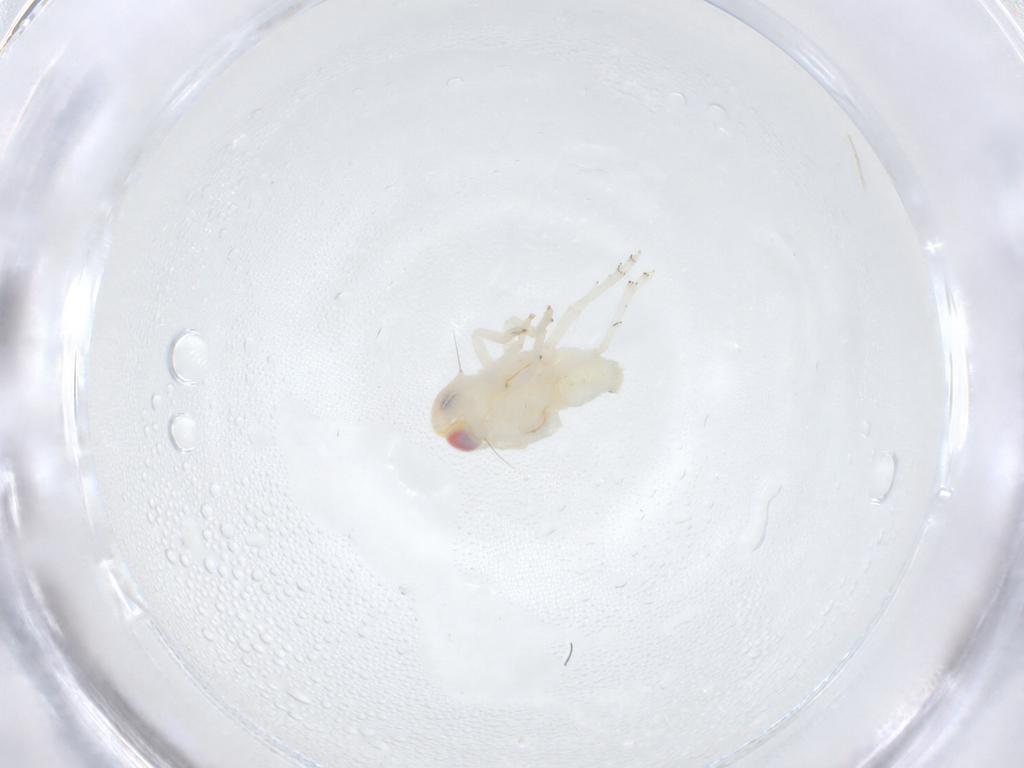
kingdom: Animalia
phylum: Arthropoda
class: Insecta
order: Hemiptera
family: Nogodinidae
